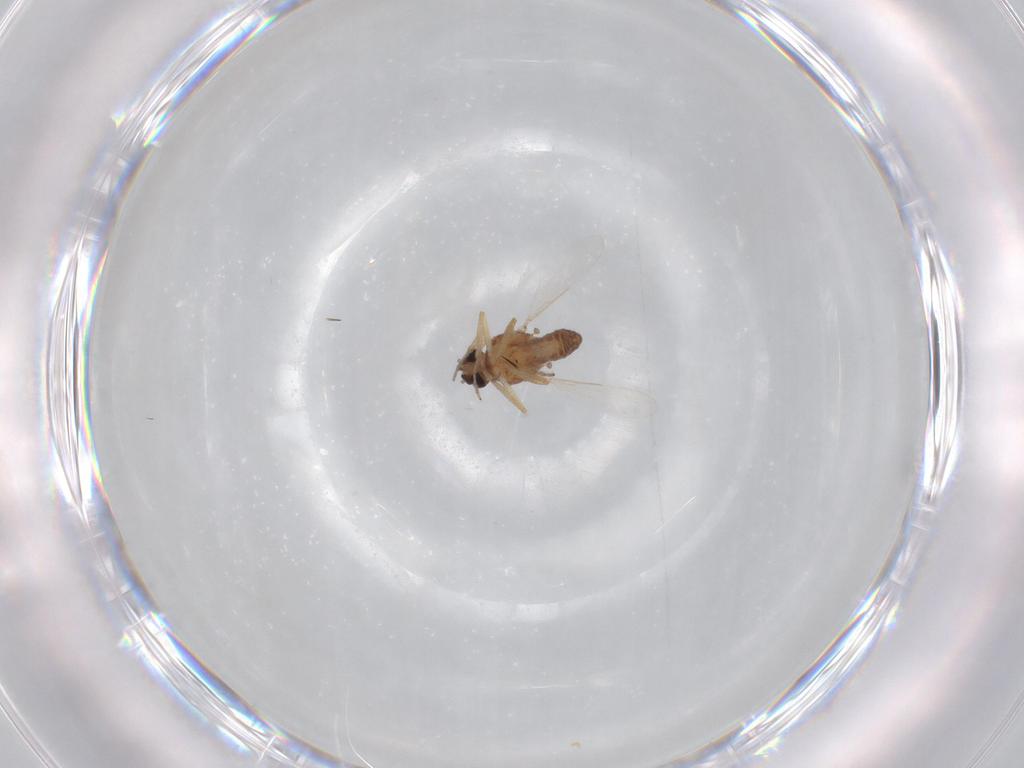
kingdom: Animalia
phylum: Arthropoda
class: Insecta
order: Diptera
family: Ceratopogonidae
